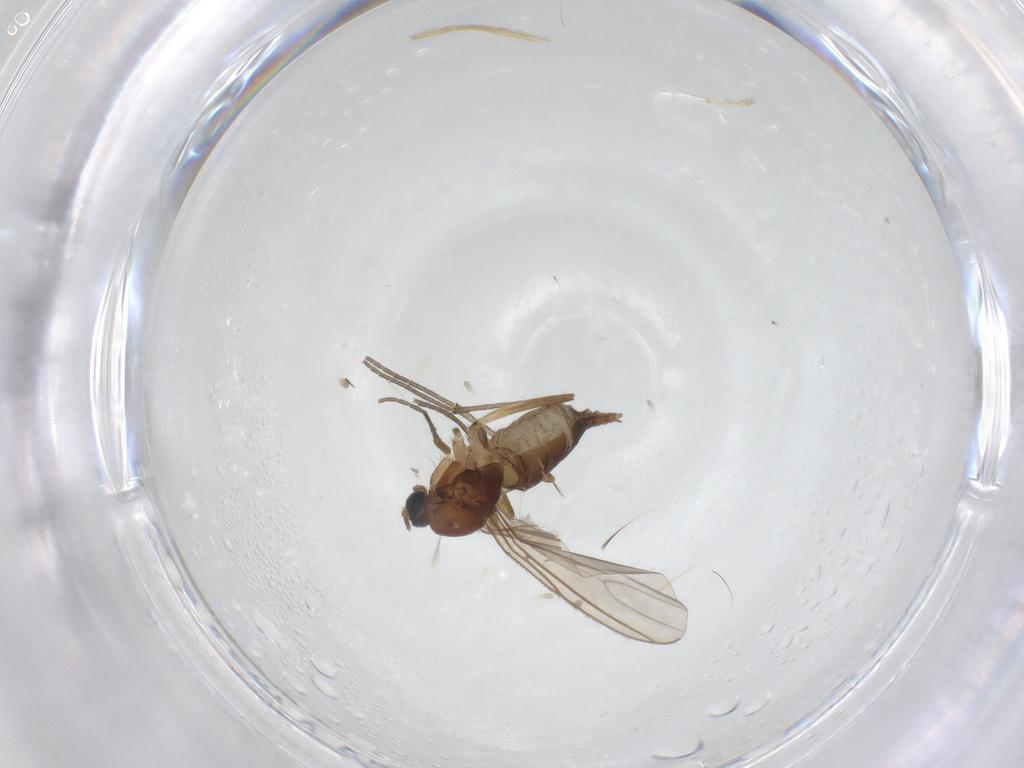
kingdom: Animalia
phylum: Arthropoda
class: Insecta
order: Diptera
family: Sciaridae
